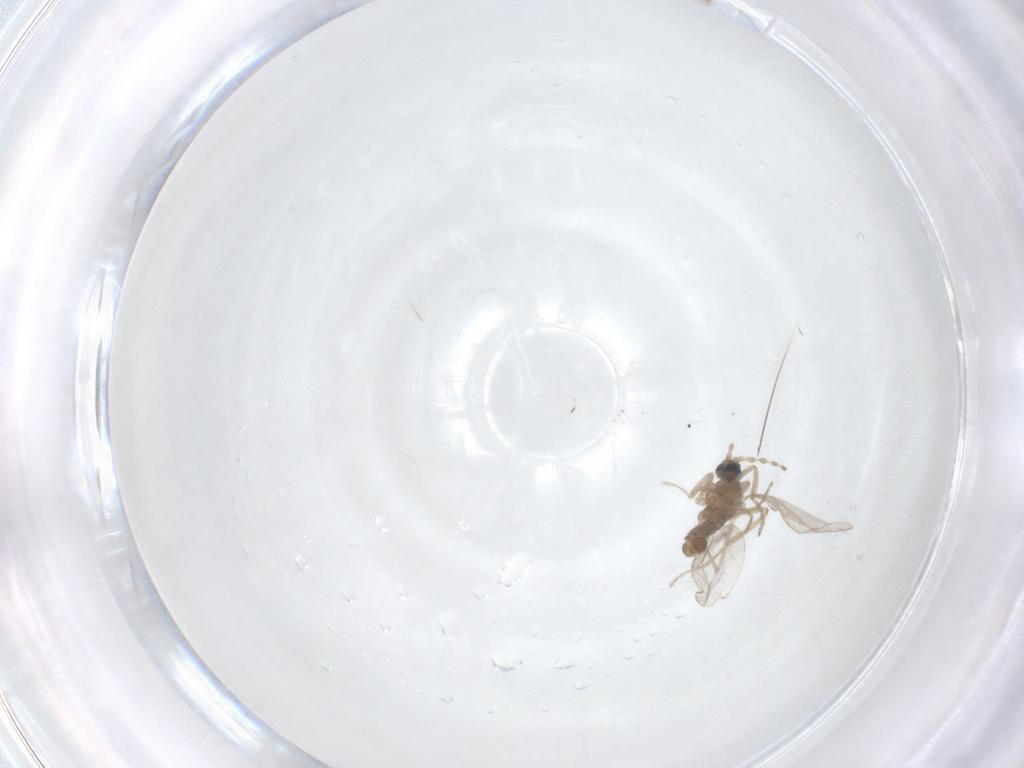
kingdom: Animalia
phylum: Arthropoda
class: Insecta
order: Diptera
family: Cecidomyiidae
